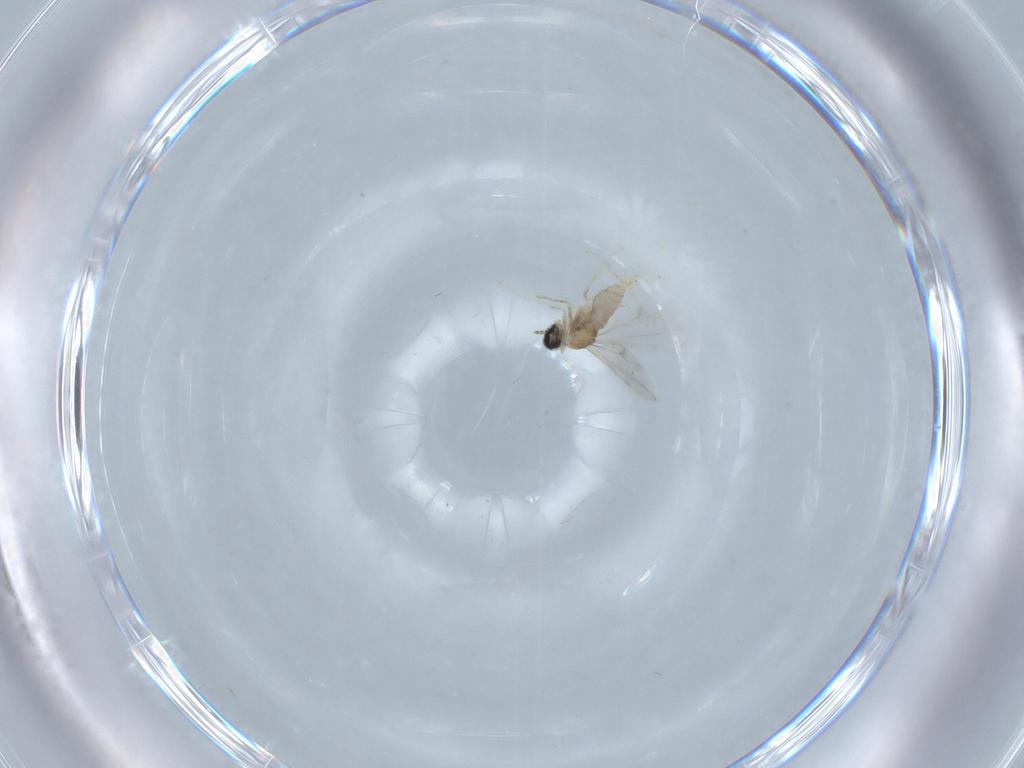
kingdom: Animalia
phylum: Arthropoda
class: Insecta
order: Diptera
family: Cecidomyiidae
